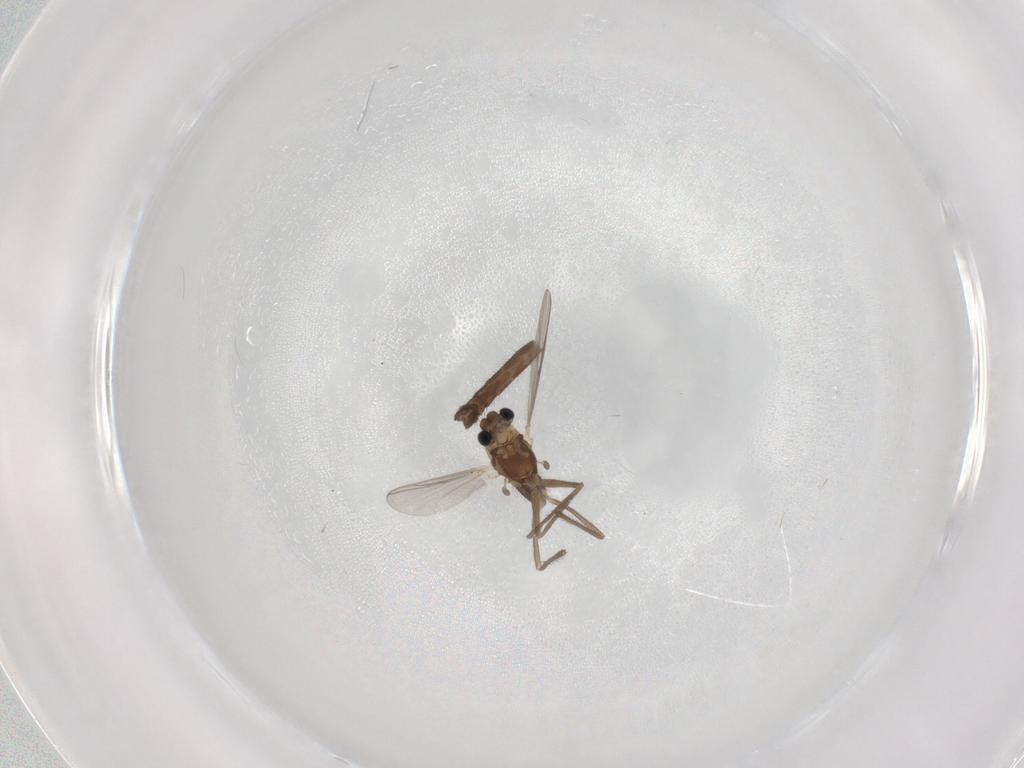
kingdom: Animalia
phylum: Arthropoda
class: Insecta
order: Diptera
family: Chironomidae
